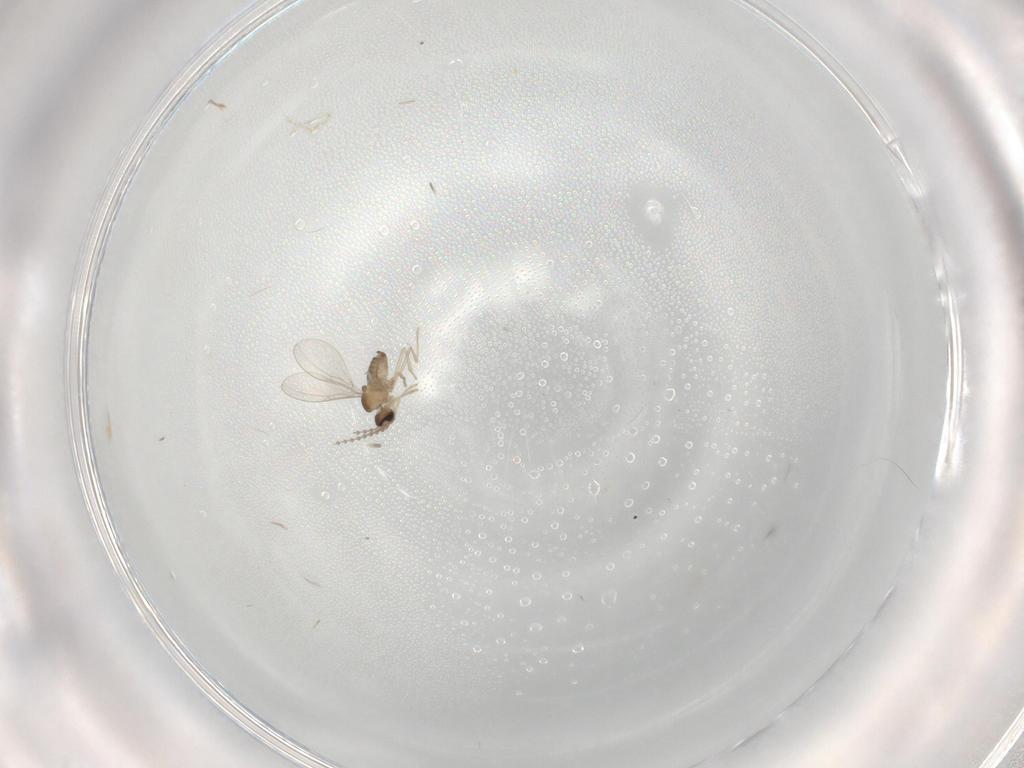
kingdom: Animalia
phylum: Arthropoda
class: Insecta
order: Diptera
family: Cecidomyiidae
